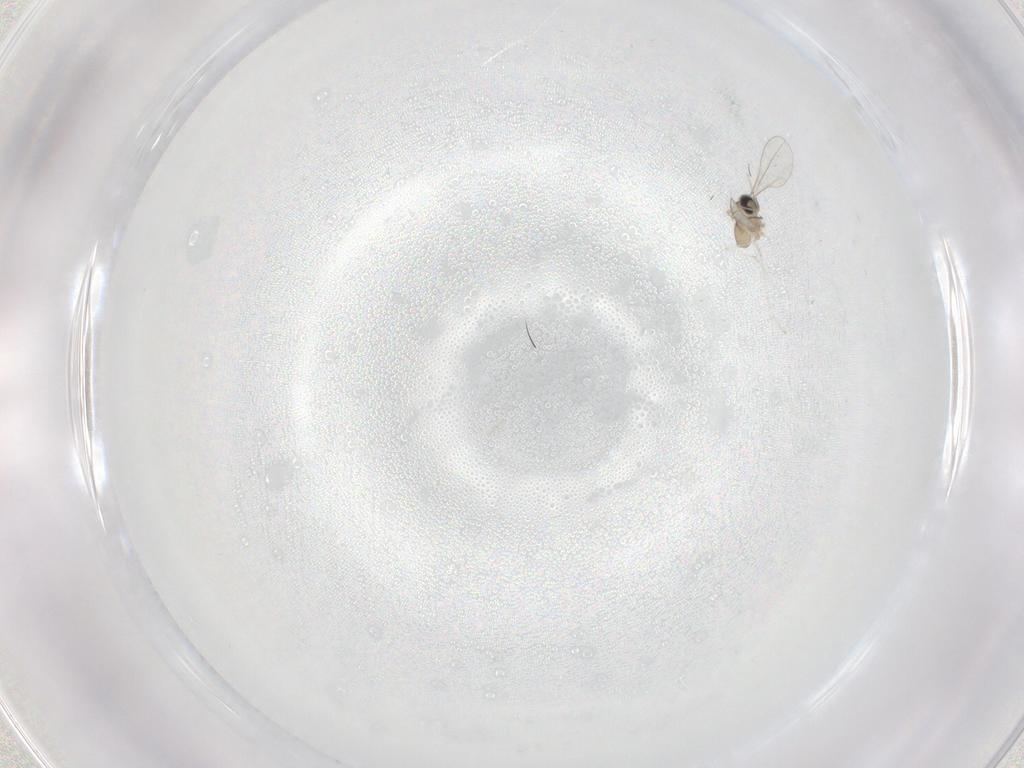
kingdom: Animalia
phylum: Arthropoda
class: Insecta
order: Diptera
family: Cecidomyiidae
